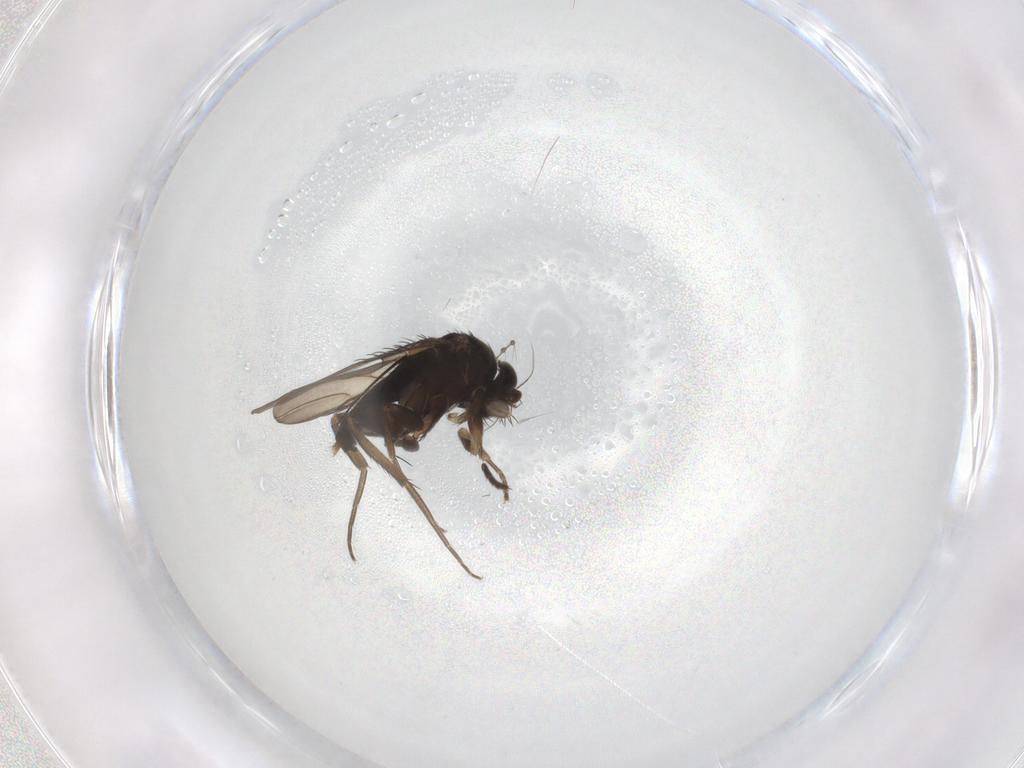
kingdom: Animalia
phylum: Arthropoda
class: Insecta
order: Diptera
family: Phoridae
